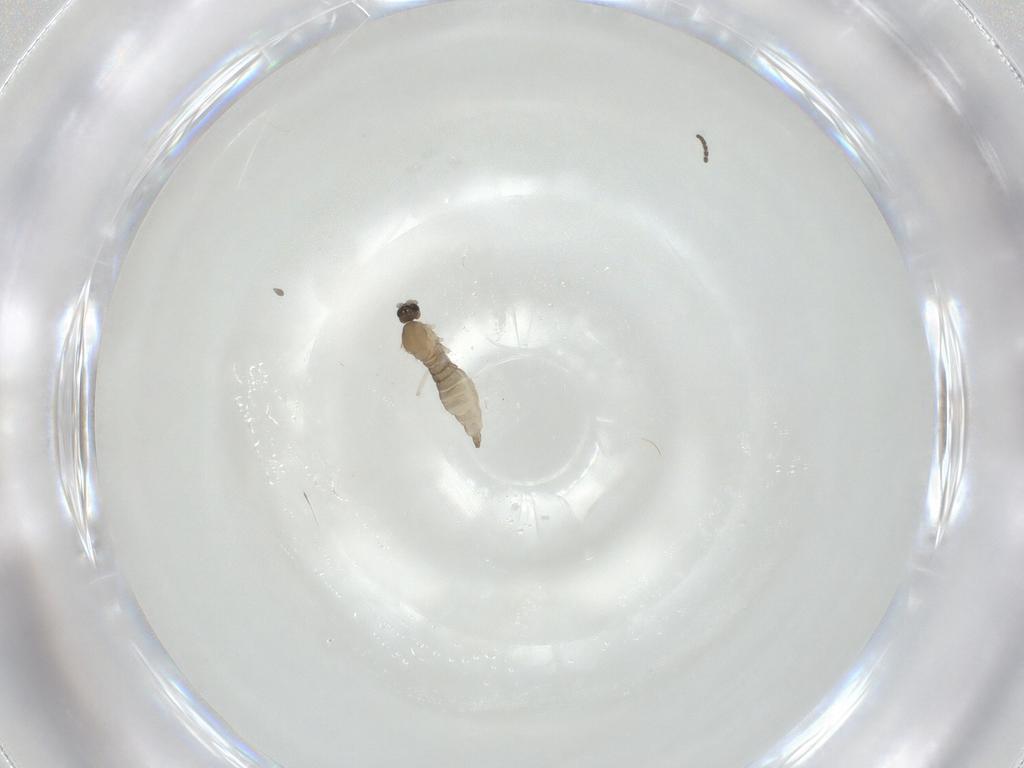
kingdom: Animalia
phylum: Arthropoda
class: Insecta
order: Diptera
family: Cecidomyiidae
